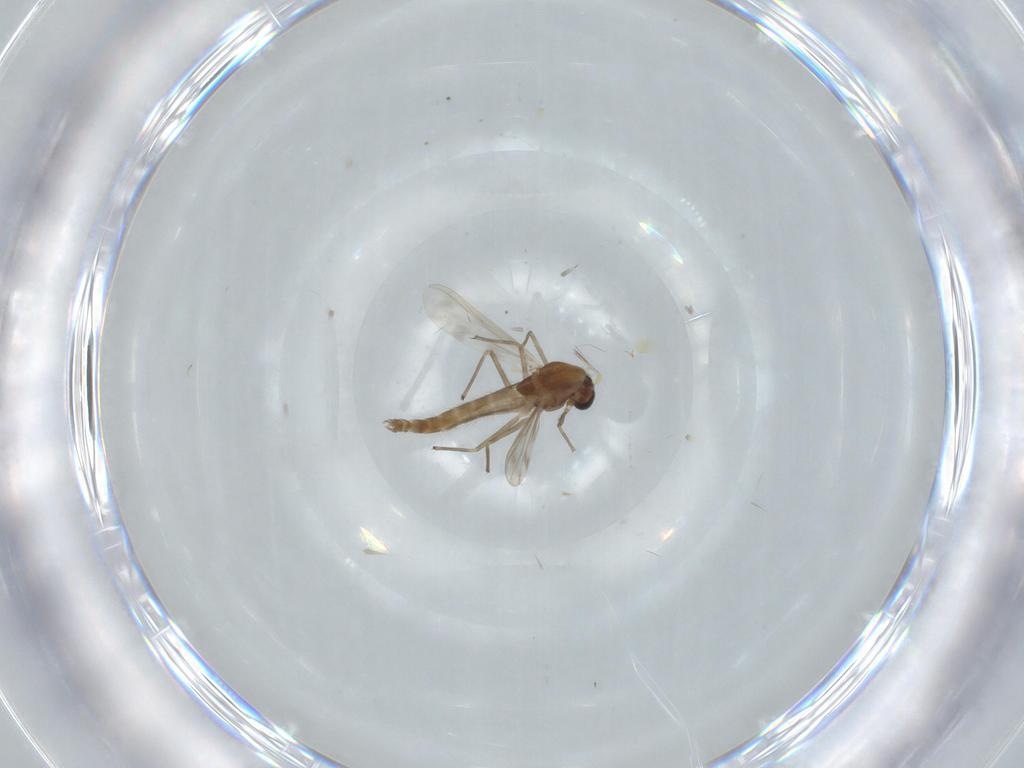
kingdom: Animalia
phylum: Arthropoda
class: Insecta
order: Diptera
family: Chironomidae
